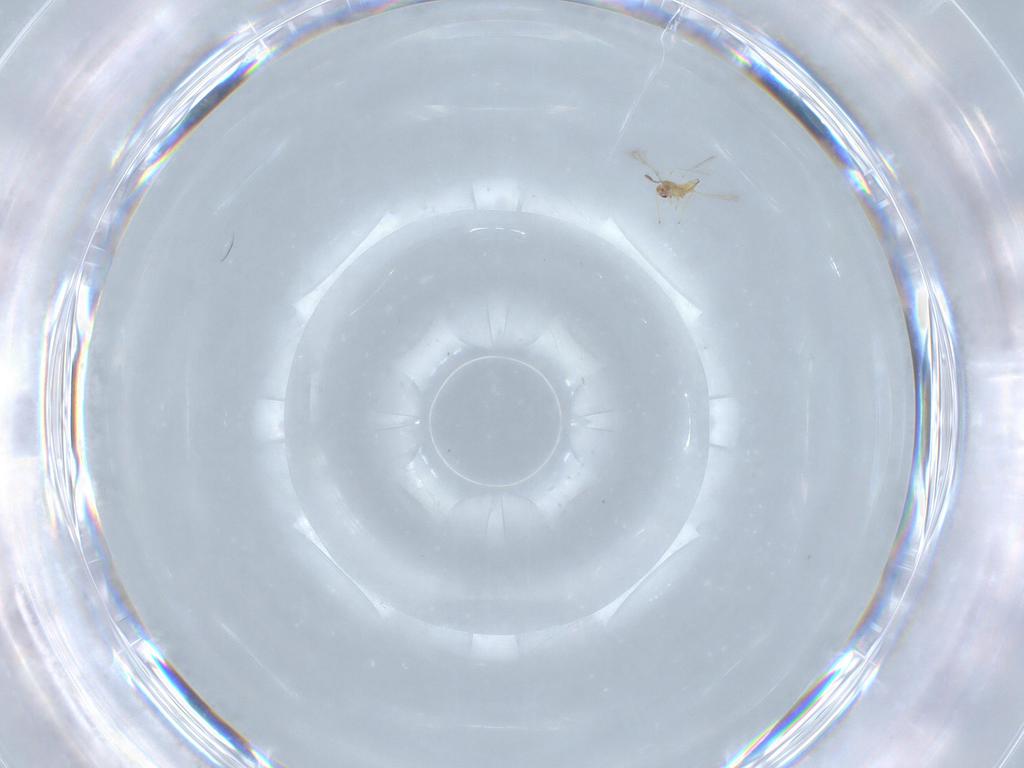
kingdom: Animalia
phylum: Arthropoda
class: Insecta
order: Hymenoptera
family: Mymaridae
